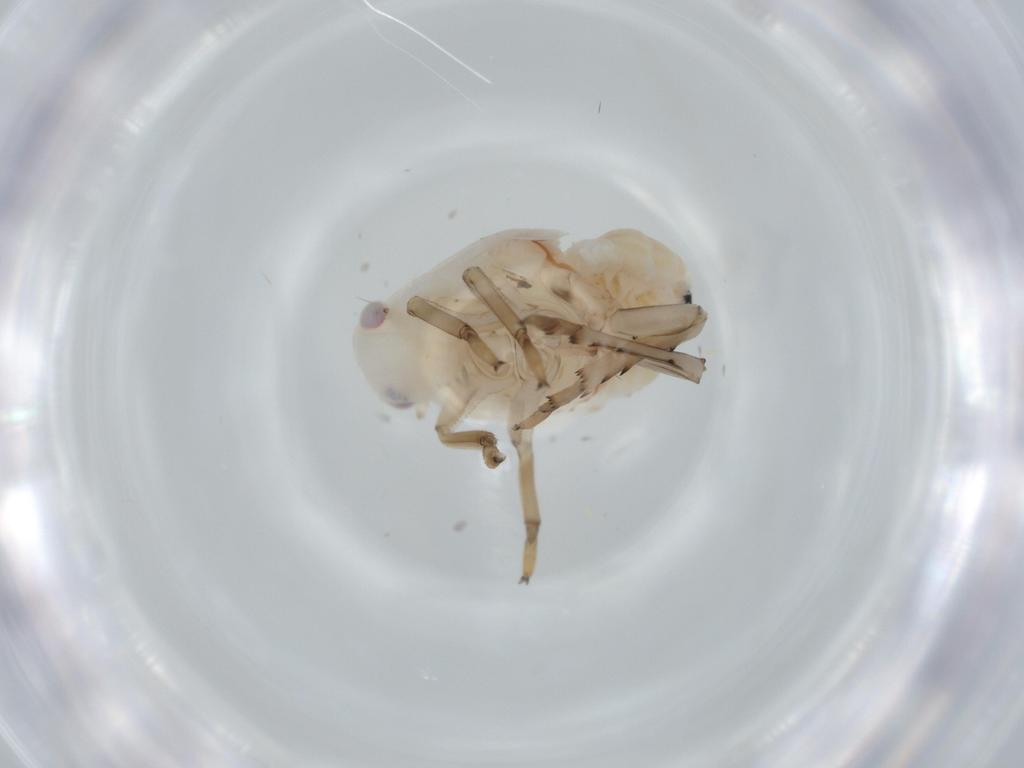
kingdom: Animalia
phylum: Arthropoda
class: Insecta
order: Hemiptera
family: Flatidae
